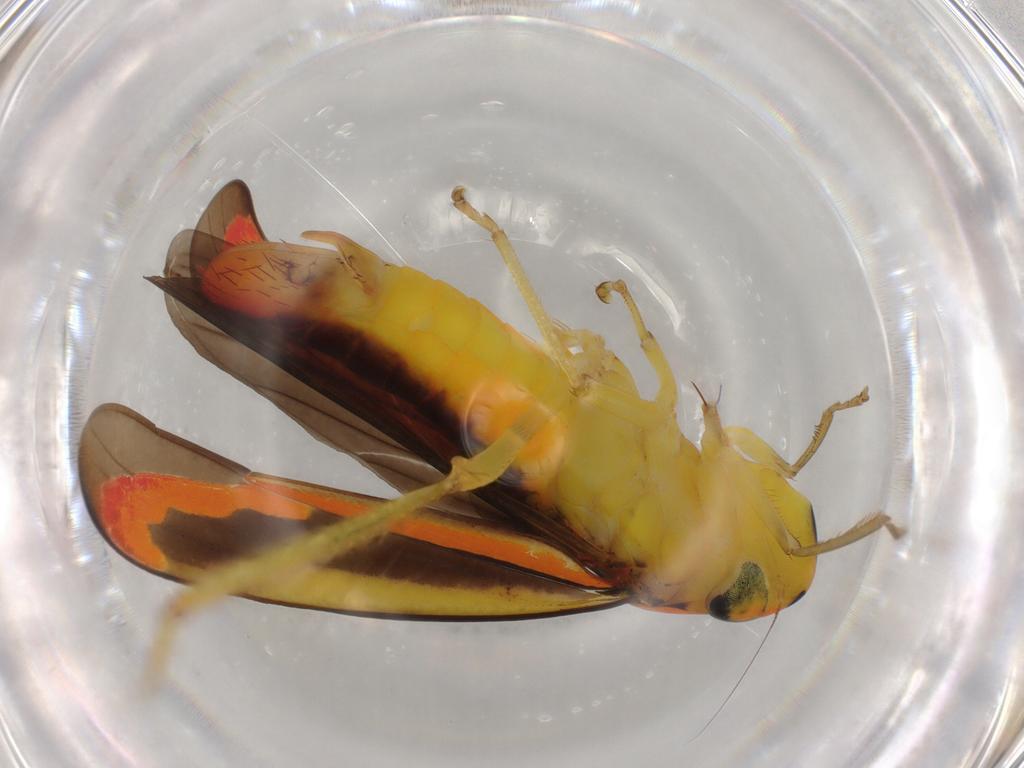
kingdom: Animalia
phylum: Arthropoda
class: Insecta
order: Hemiptera
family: Cicadellidae
